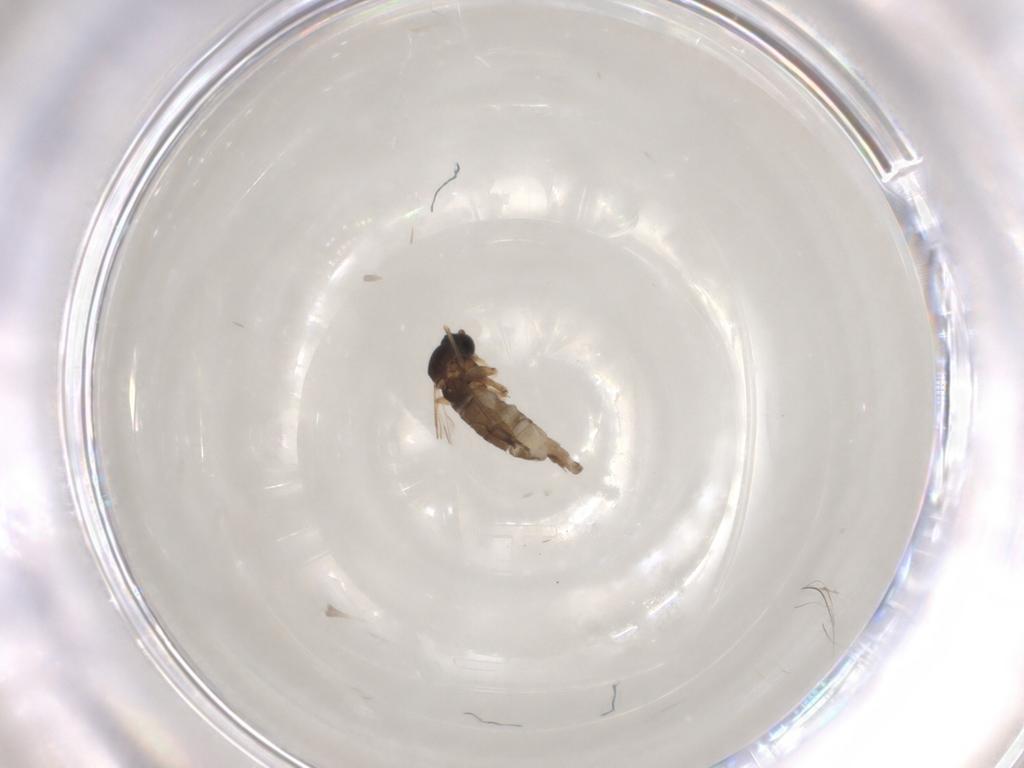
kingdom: Animalia
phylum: Arthropoda
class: Insecta
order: Diptera
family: Sciaridae
